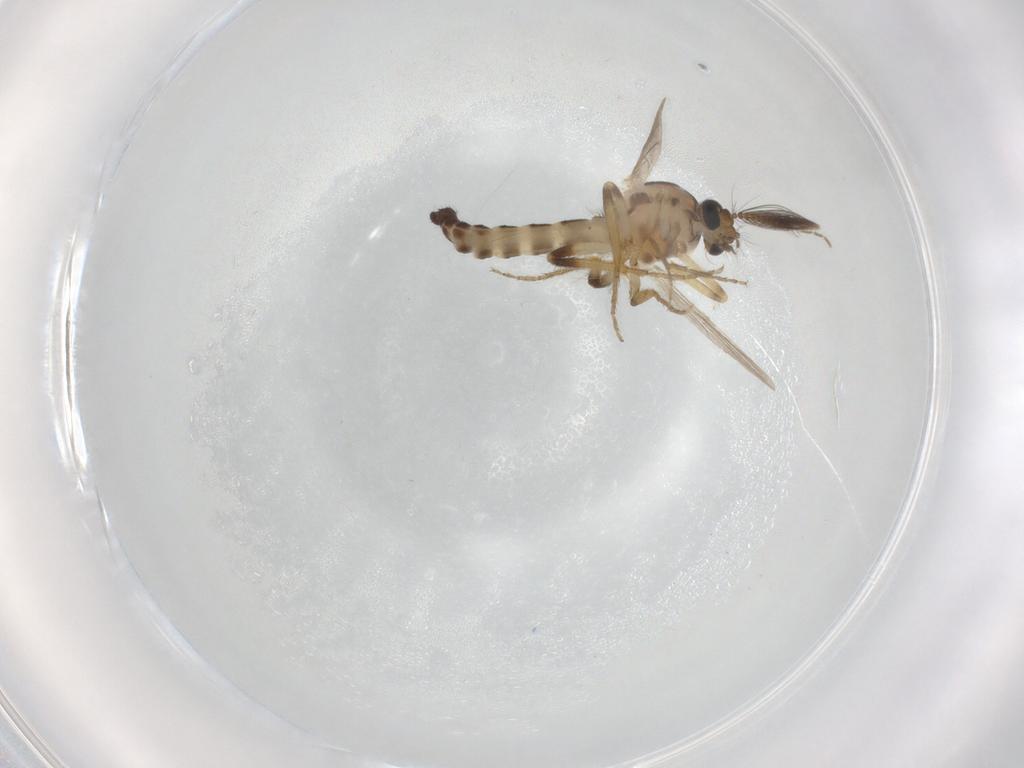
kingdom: Animalia
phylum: Arthropoda
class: Insecta
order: Diptera
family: Ceratopogonidae
